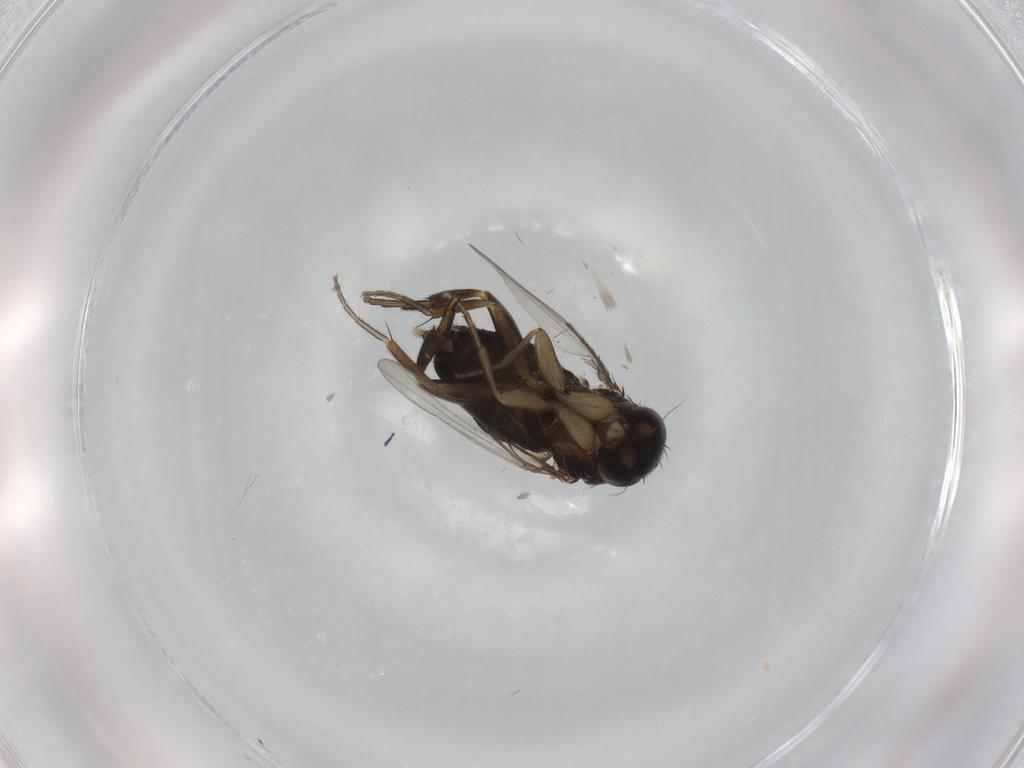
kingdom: Animalia
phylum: Arthropoda
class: Insecta
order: Diptera
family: Phoridae
